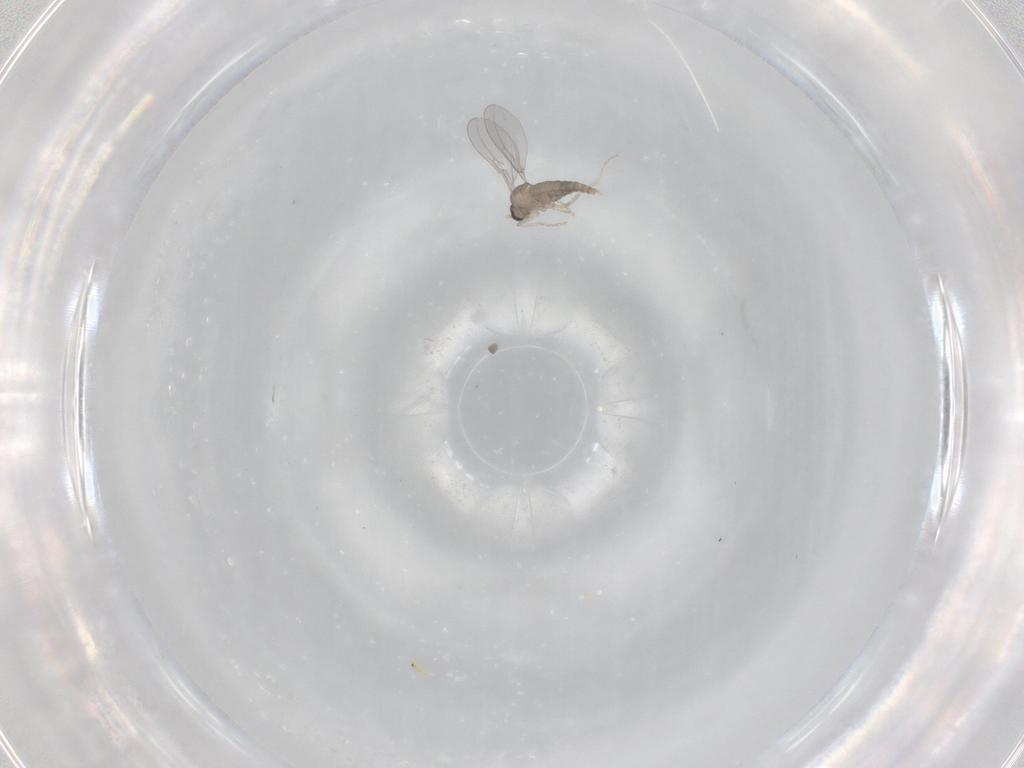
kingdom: Animalia
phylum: Arthropoda
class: Insecta
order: Diptera
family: Cecidomyiidae
